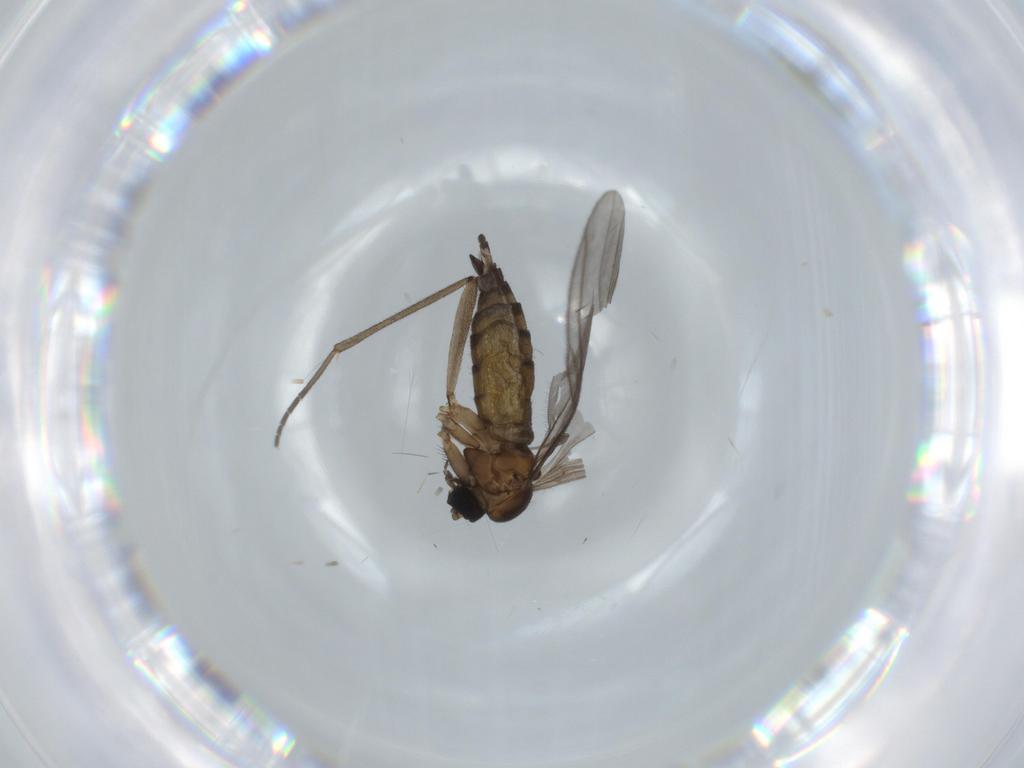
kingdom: Animalia
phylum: Arthropoda
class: Insecta
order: Diptera
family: Sciaridae
